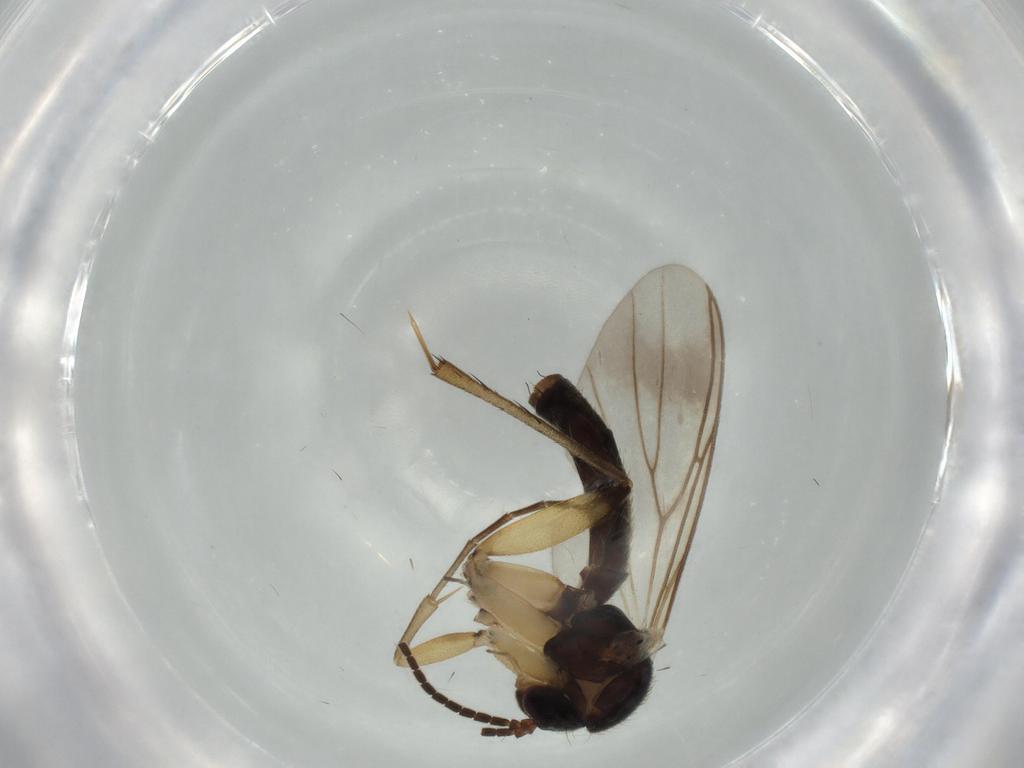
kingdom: Animalia
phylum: Arthropoda
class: Insecta
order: Diptera
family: Mycetophilidae
